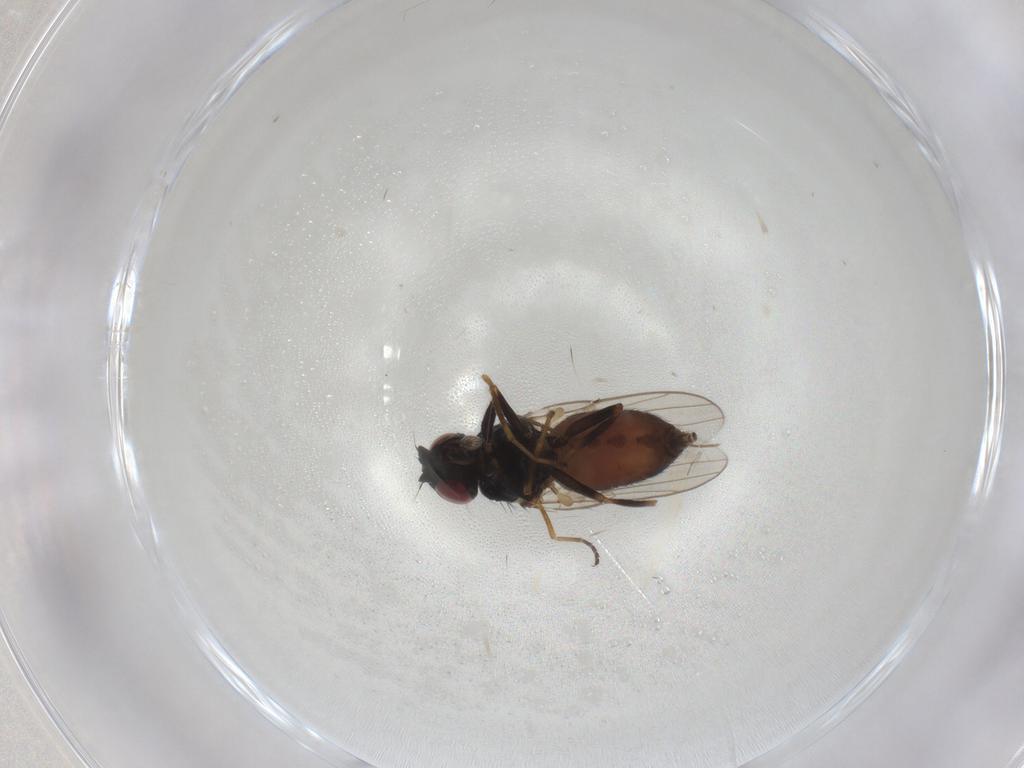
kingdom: Animalia
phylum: Arthropoda
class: Insecta
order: Diptera
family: Chloropidae
